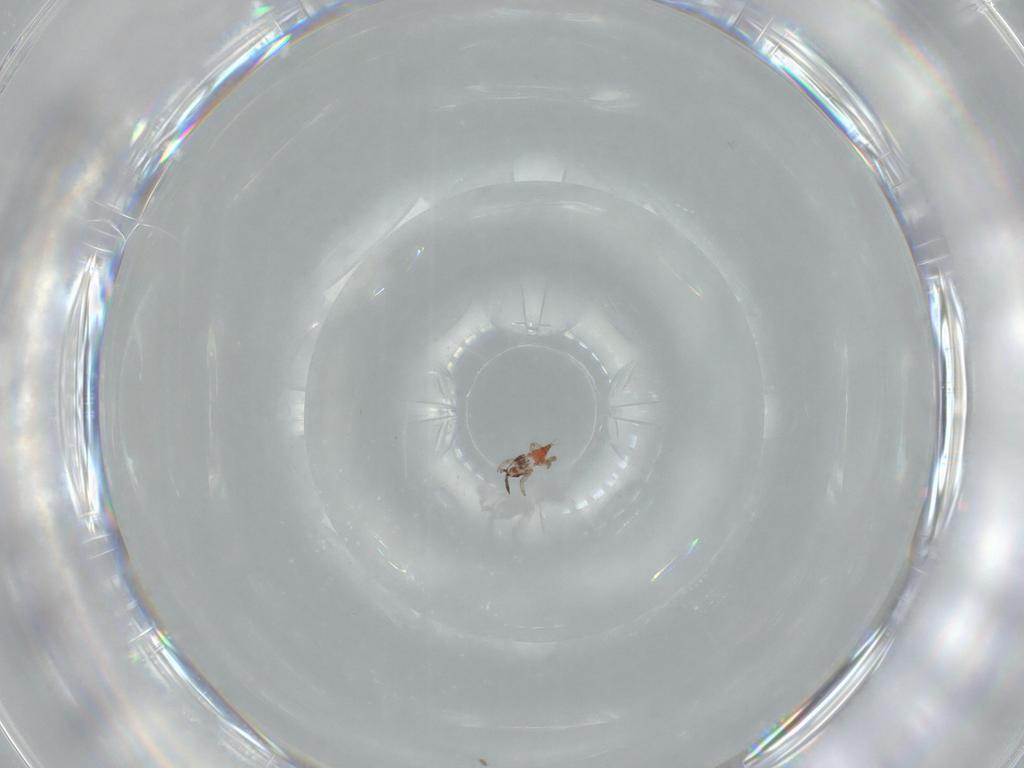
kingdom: Animalia
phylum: Arthropoda
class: Insecta
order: Thysanoptera
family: Phlaeothripidae
